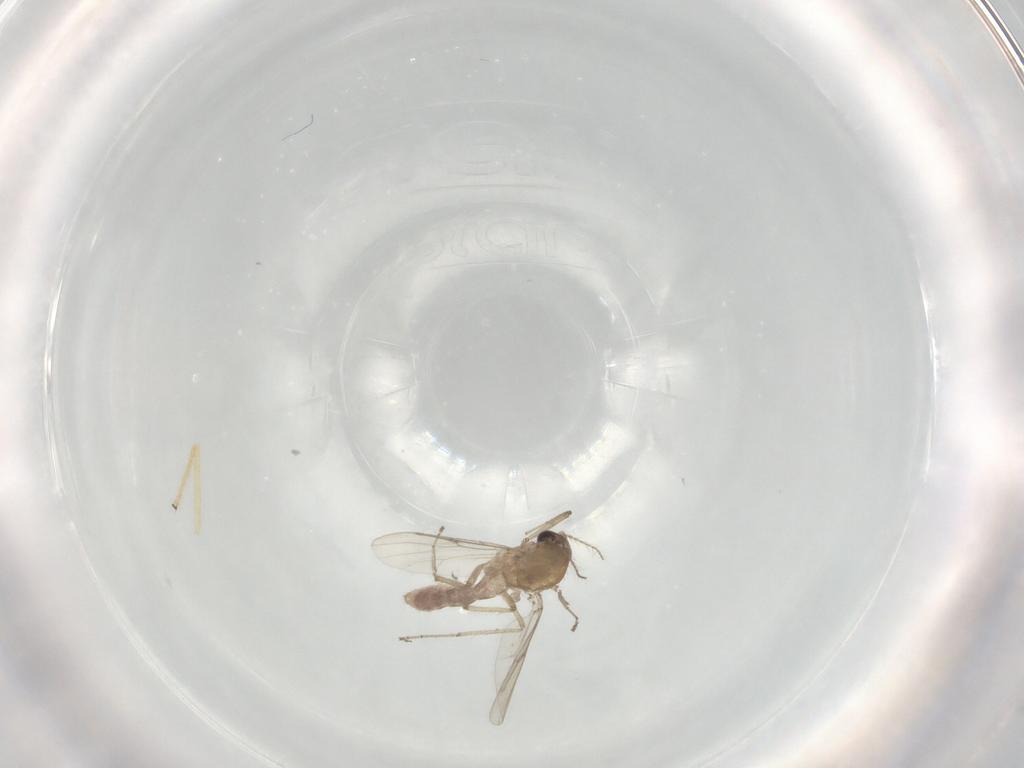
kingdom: Animalia
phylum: Arthropoda
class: Insecta
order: Diptera
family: Chironomidae
